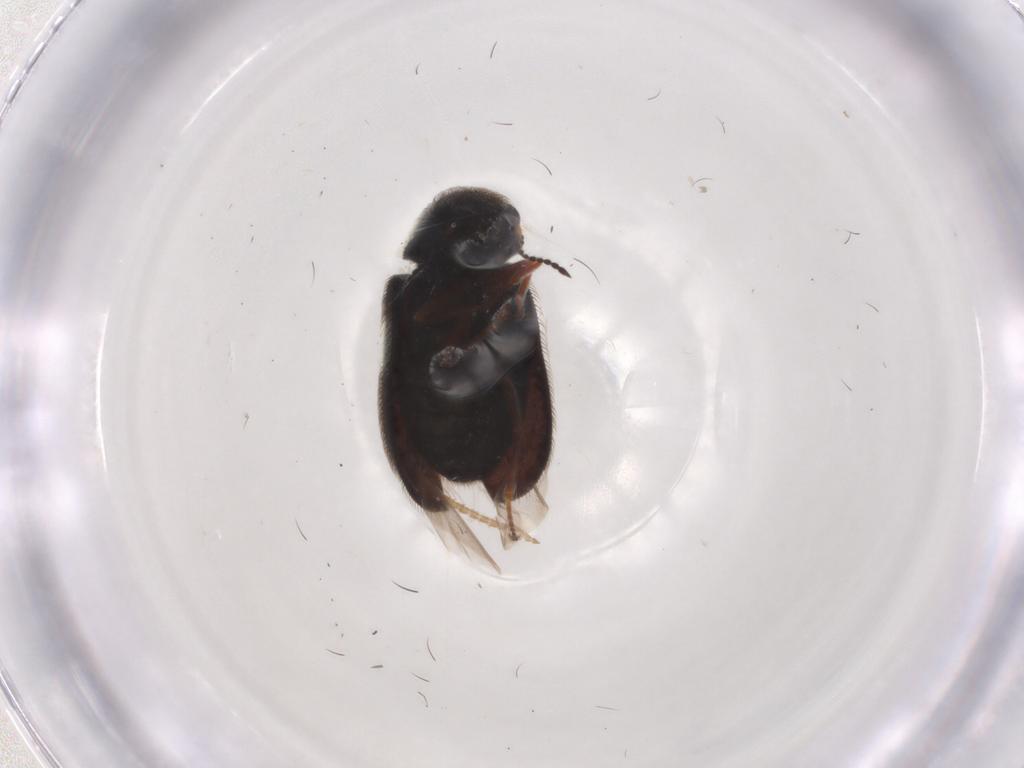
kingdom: Animalia
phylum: Arthropoda
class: Insecta
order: Coleoptera
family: Melyridae
